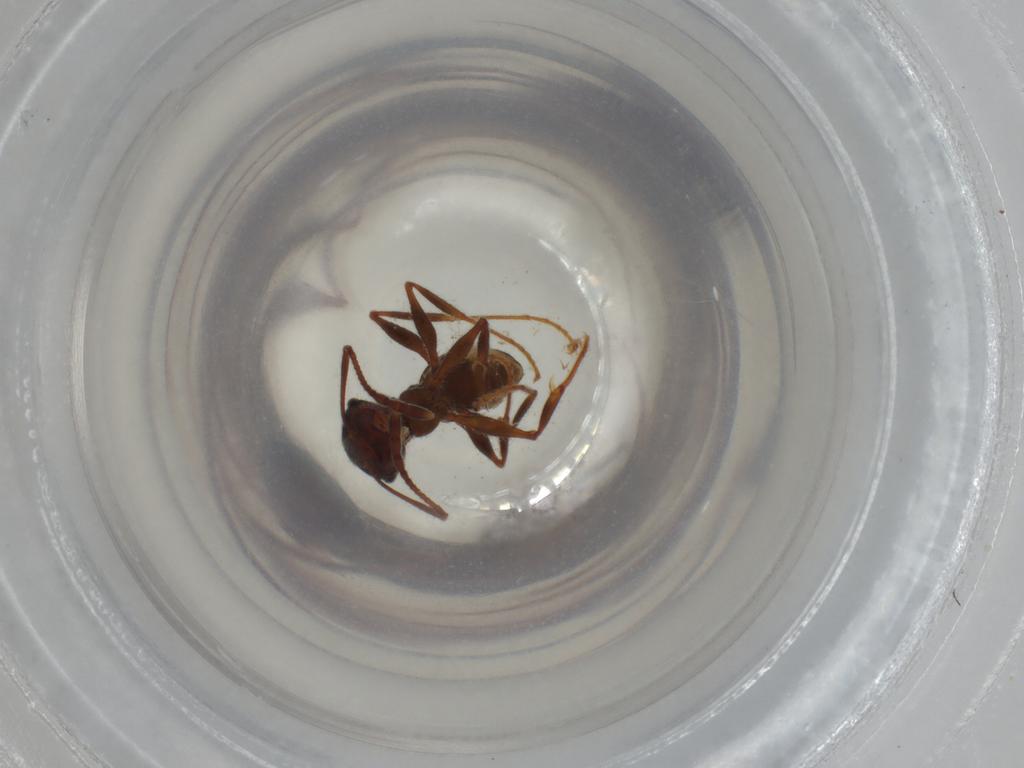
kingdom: Animalia
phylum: Arthropoda
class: Insecta
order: Hymenoptera
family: Formicidae
